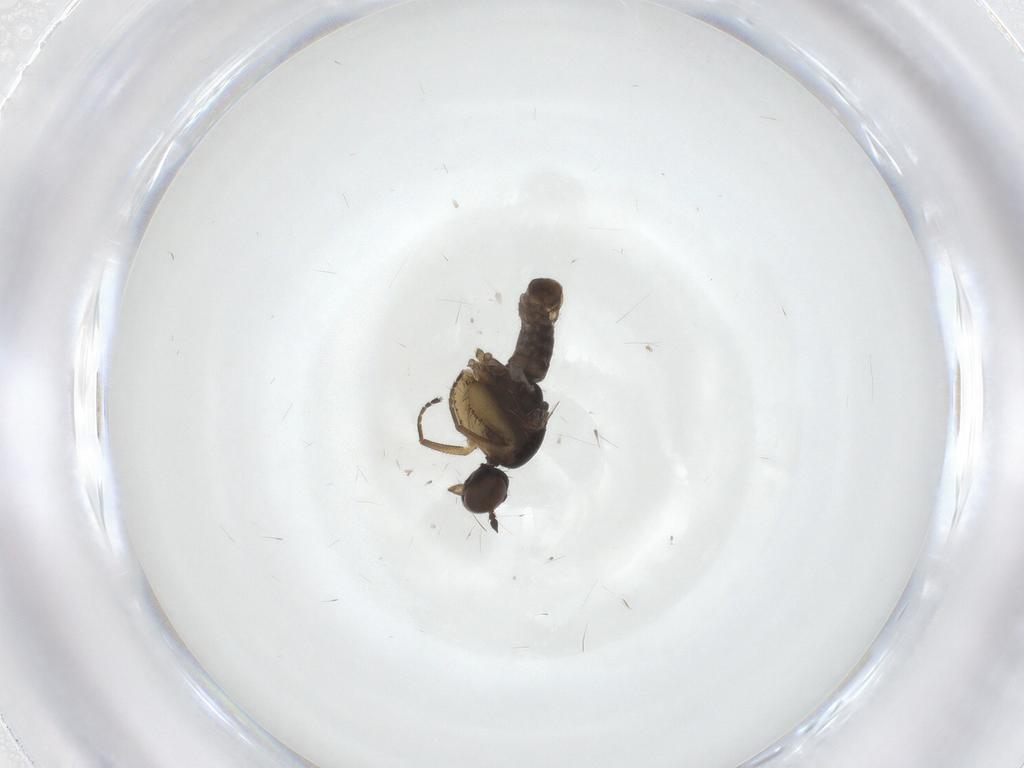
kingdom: Animalia
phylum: Arthropoda
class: Insecta
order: Diptera
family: Empididae
